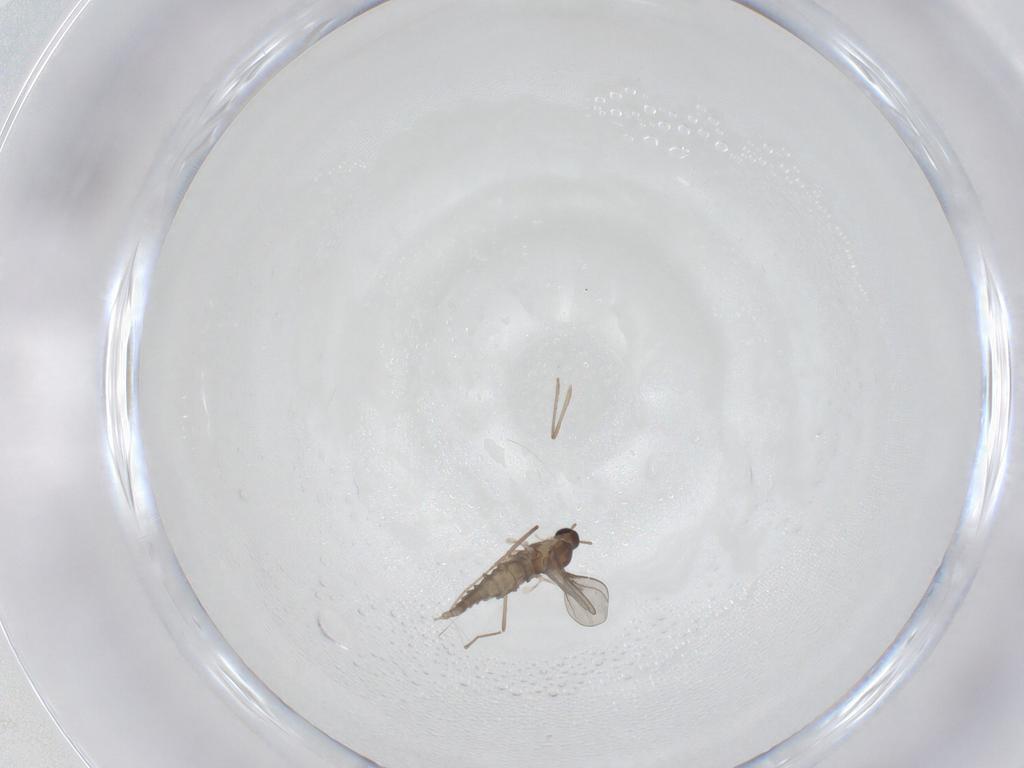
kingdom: Animalia
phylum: Arthropoda
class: Insecta
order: Diptera
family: Cecidomyiidae
